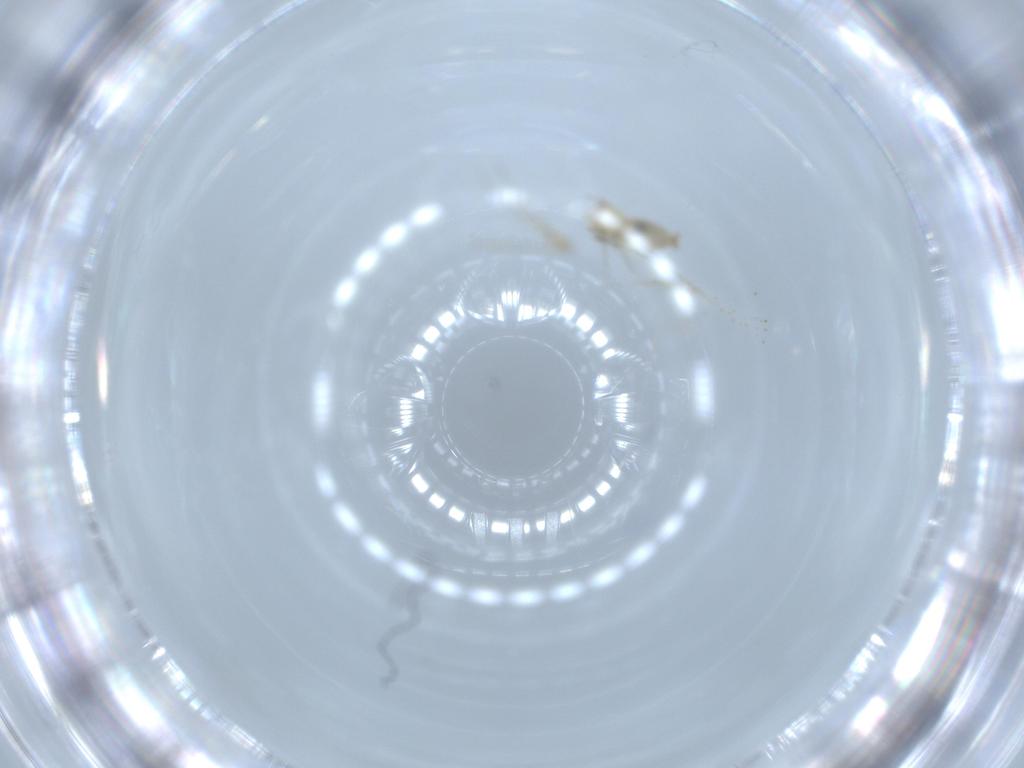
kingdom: Animalia
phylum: Arthropoda
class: Insecta
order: Diptera
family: Cecidomyiidae
